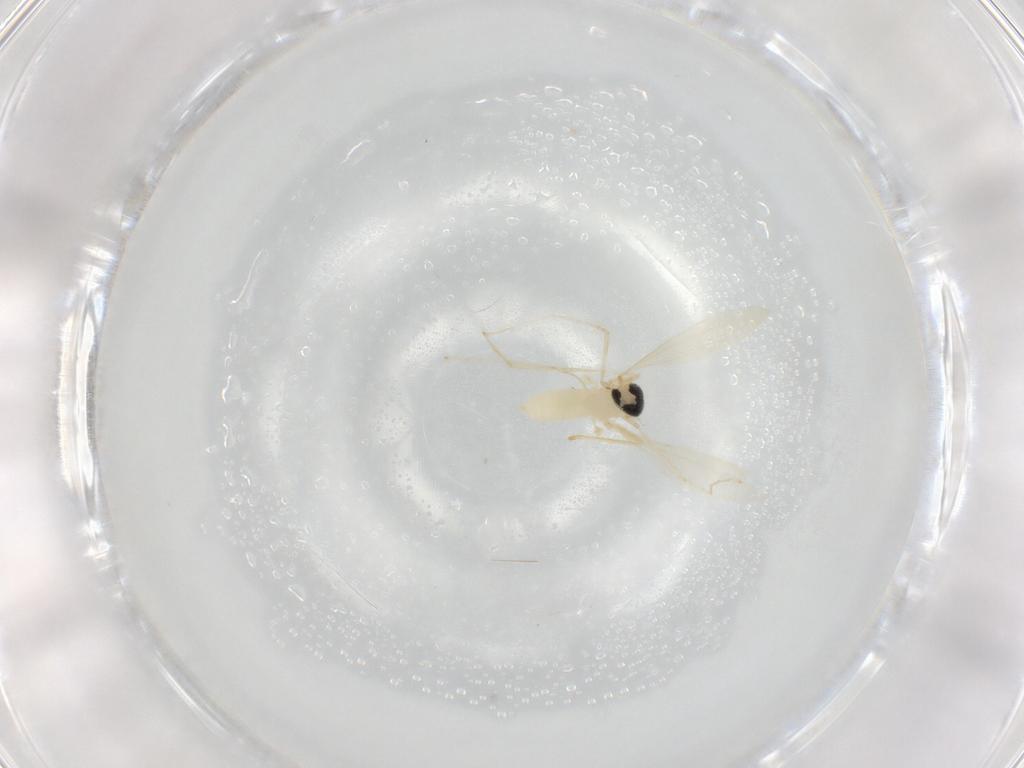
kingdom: Animalia
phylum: Arthropoda
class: Insecta
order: Diptera
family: Cecidomyiidae
